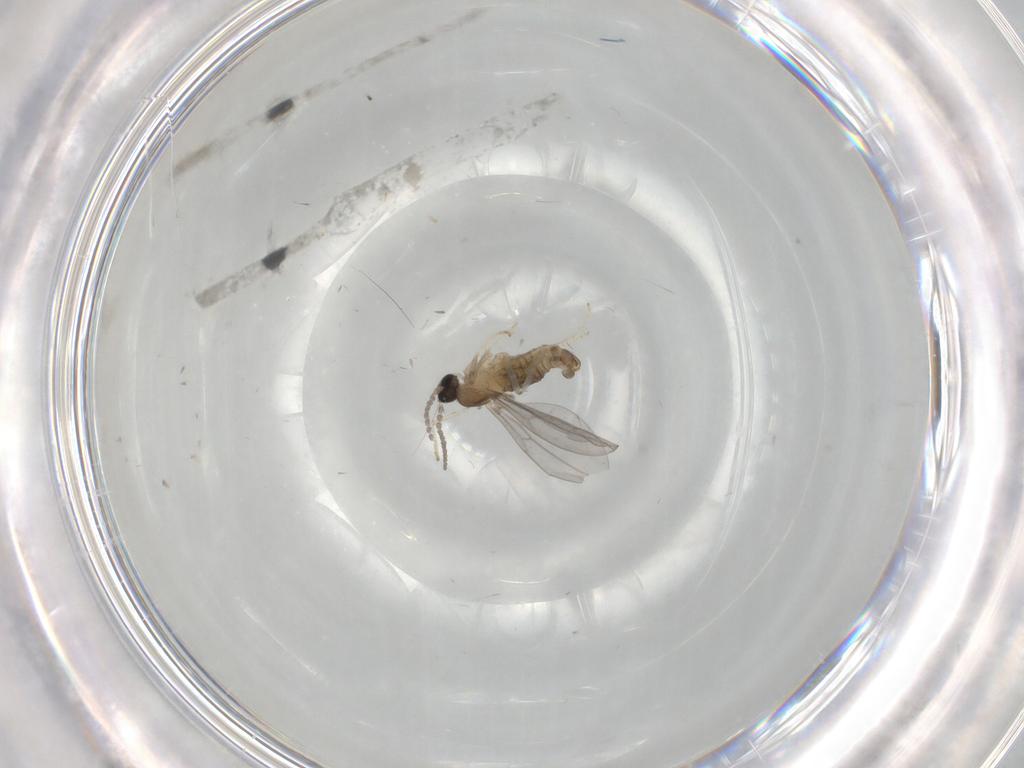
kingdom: Animalia
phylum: Arthropoda
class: Insecta
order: Diptera
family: Cecidomyiidae
